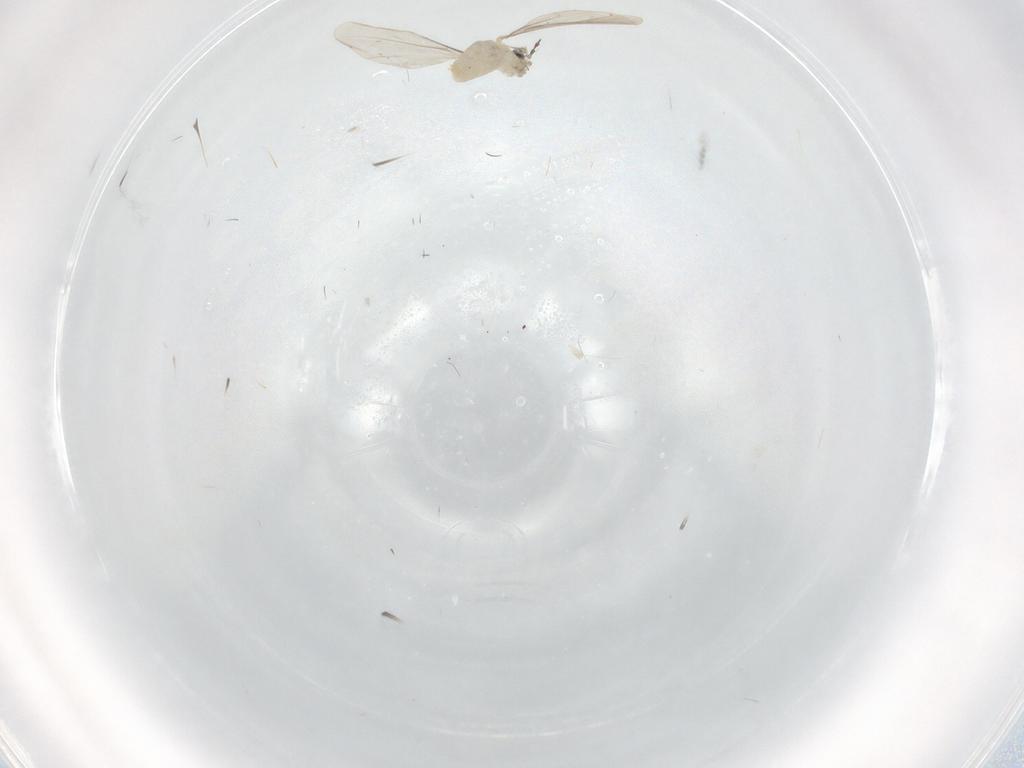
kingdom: Animalia
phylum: Arthropoda
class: Insecta
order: Diptera
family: Cecidomyiidae
